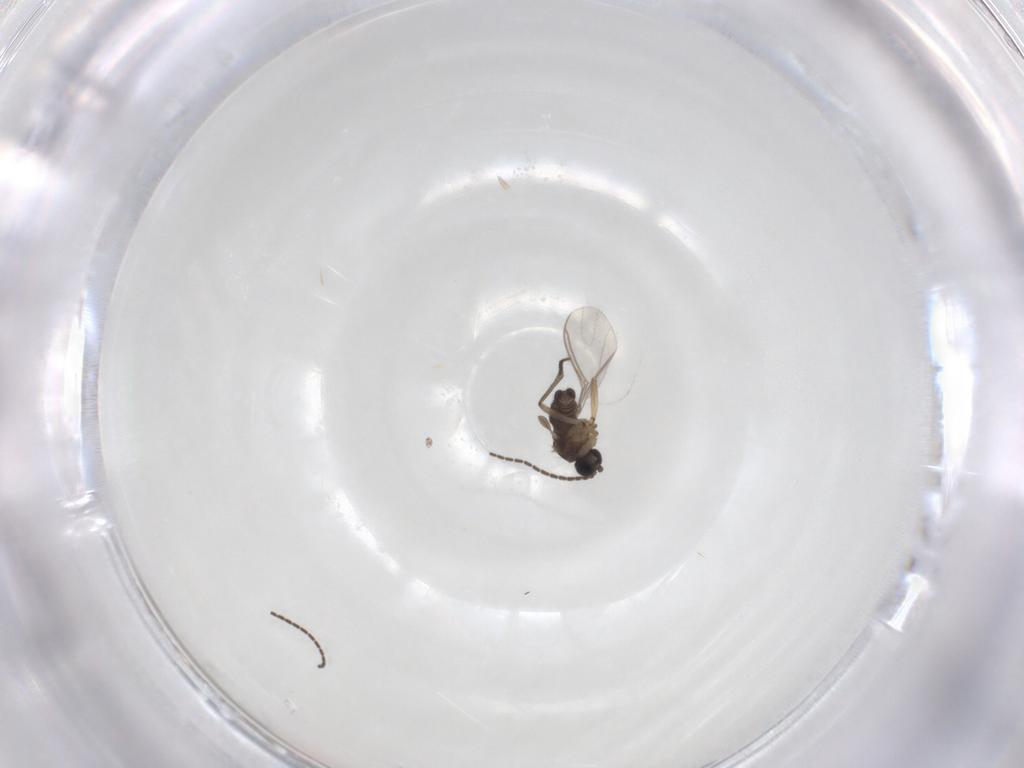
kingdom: Animalia
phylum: Arthropoda
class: Insecta
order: Diptera
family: Sciaridae
